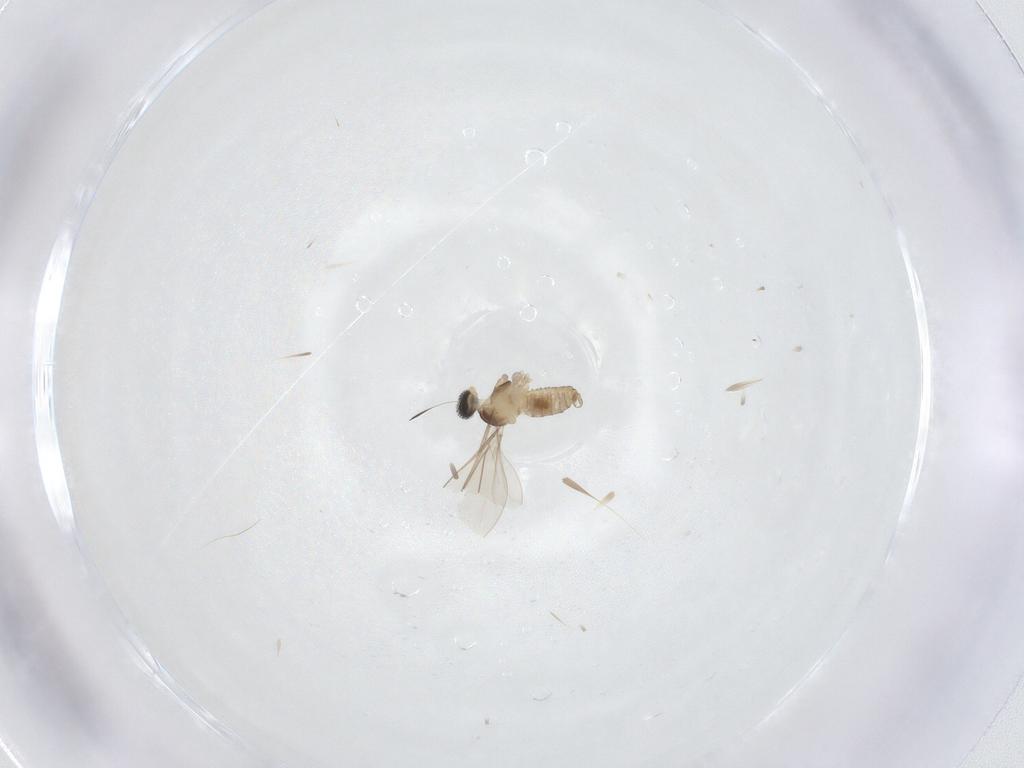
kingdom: Animalia
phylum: Arthropoda
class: Insecta
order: Diptera
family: Cecidomyiidae
